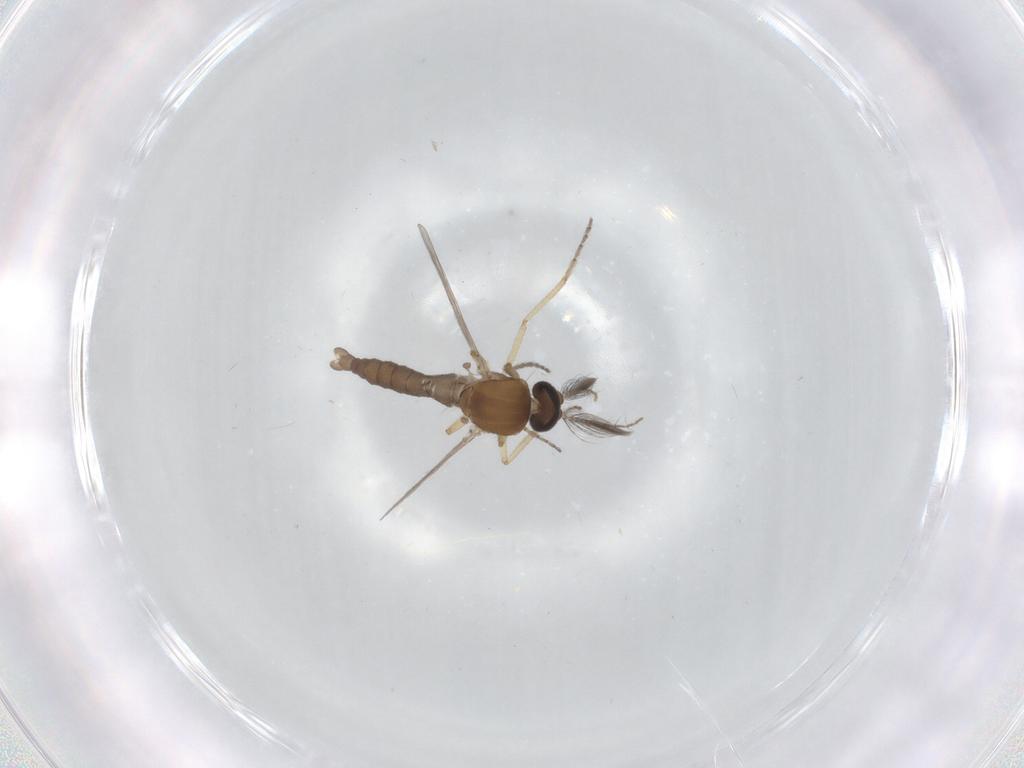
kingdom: Animalia
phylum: Arthropoda
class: Insecta
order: Diptera
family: Ceratopogonidae
